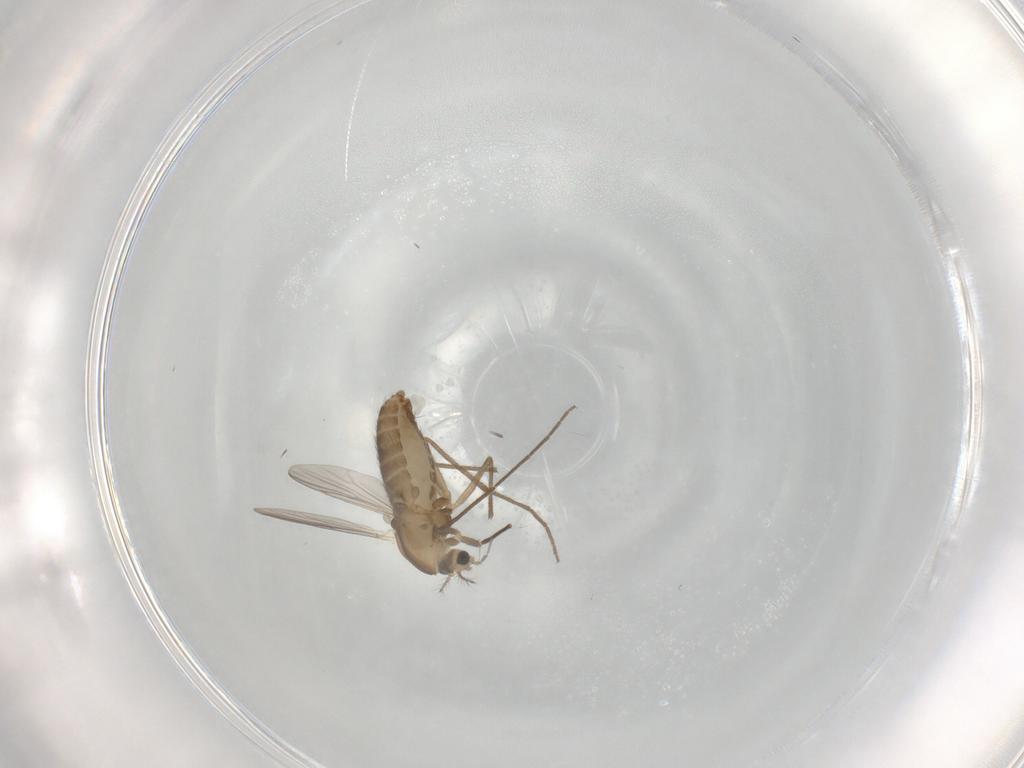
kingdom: Animalia
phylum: Arthropoda
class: Insecta
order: Diptera
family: Chironomidae
